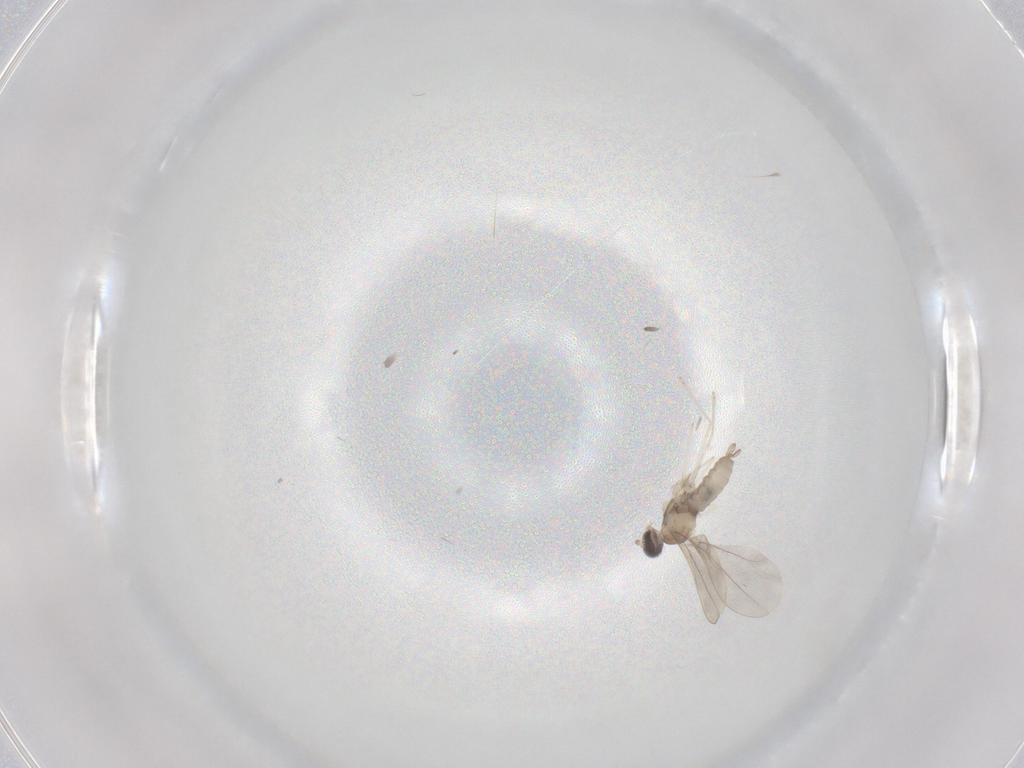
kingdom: Animalia
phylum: Arthropoda
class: Insecta
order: Diptera
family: Cecidomyiidae
